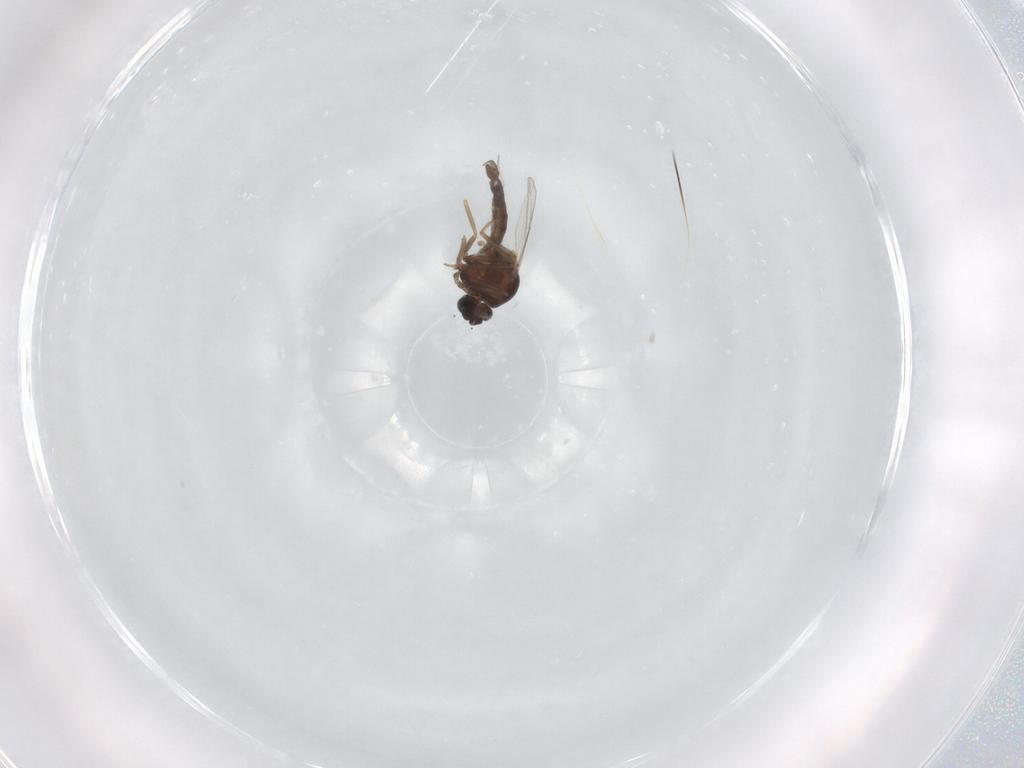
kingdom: Animalia
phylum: Arthropoda
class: Insecta
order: Diptera
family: Ceratopogonidae
